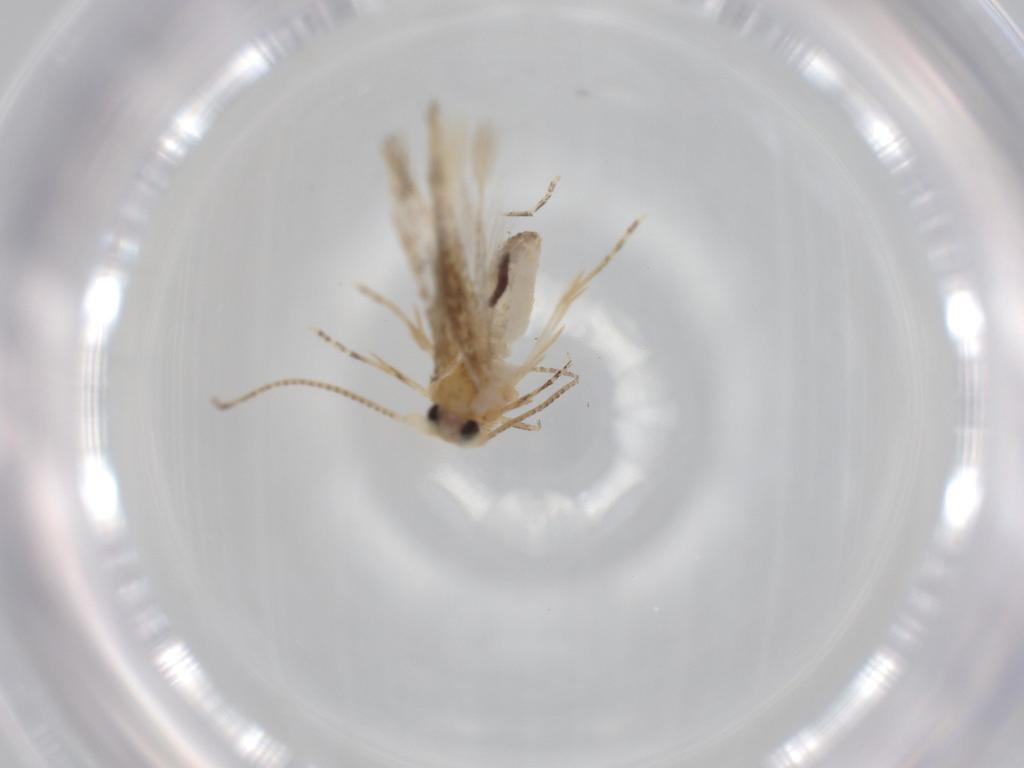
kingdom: Animalia
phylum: Arthropoda
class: Insecta
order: Lepidoptera
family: Bucculatricidae
